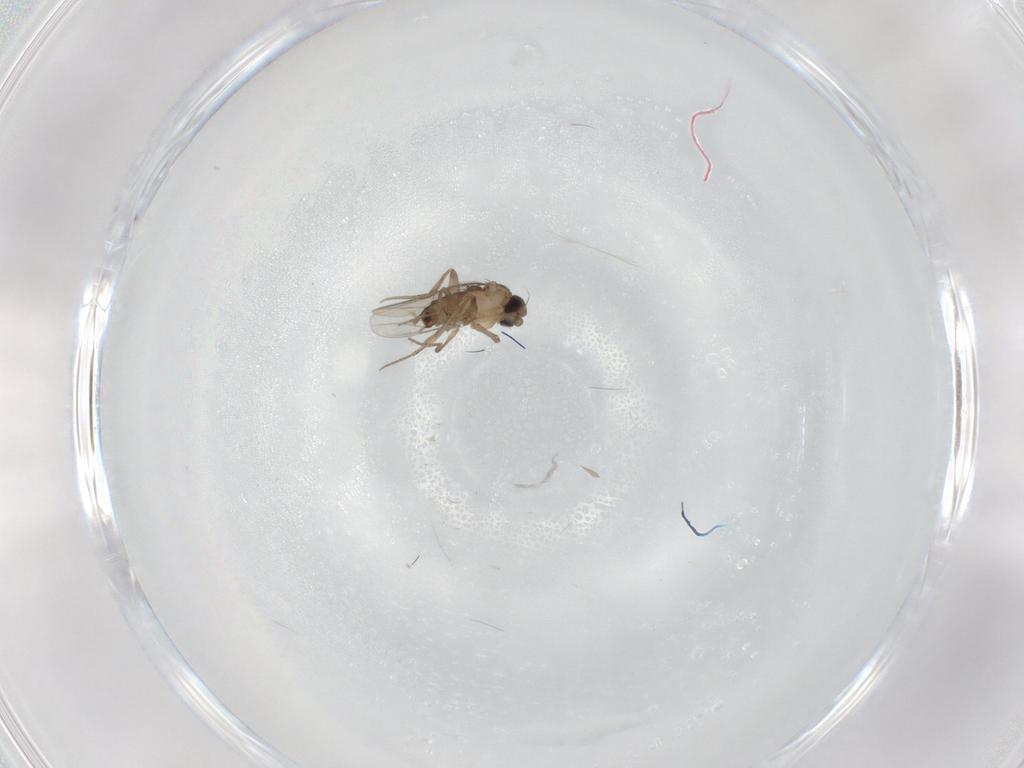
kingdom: Animalia
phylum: Arthropoda
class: Insecta
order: Diptera
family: Phoridae
